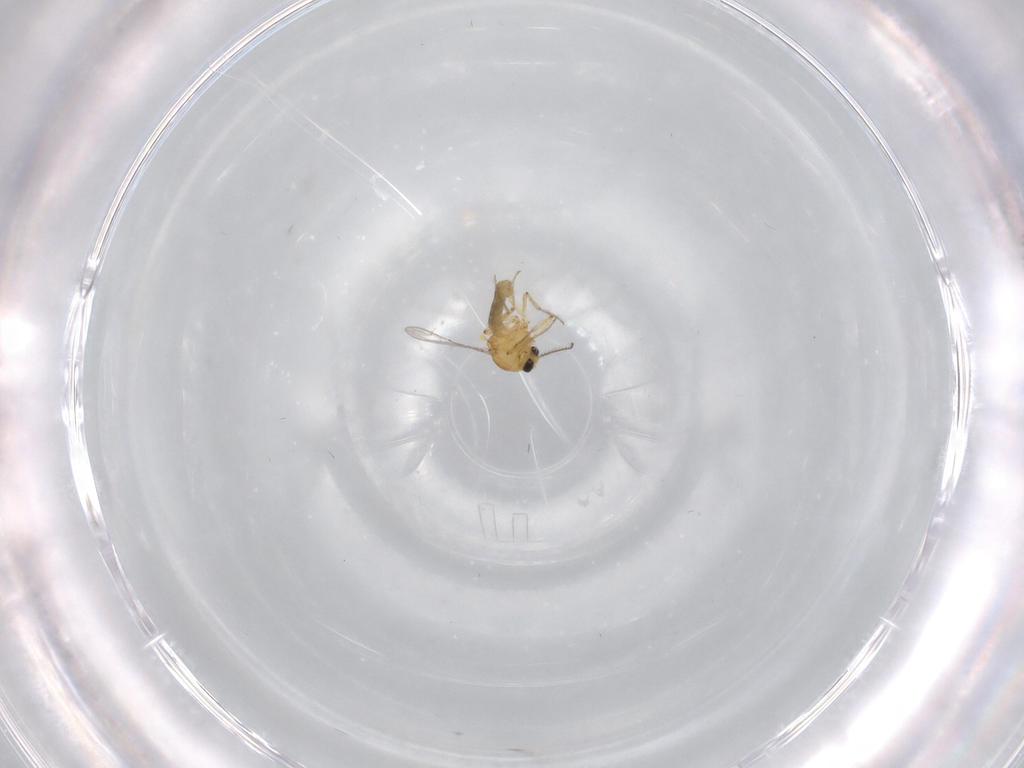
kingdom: Animalia
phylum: Arthropoda
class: Insecta
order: Diptera
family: Ceratopogonidae
